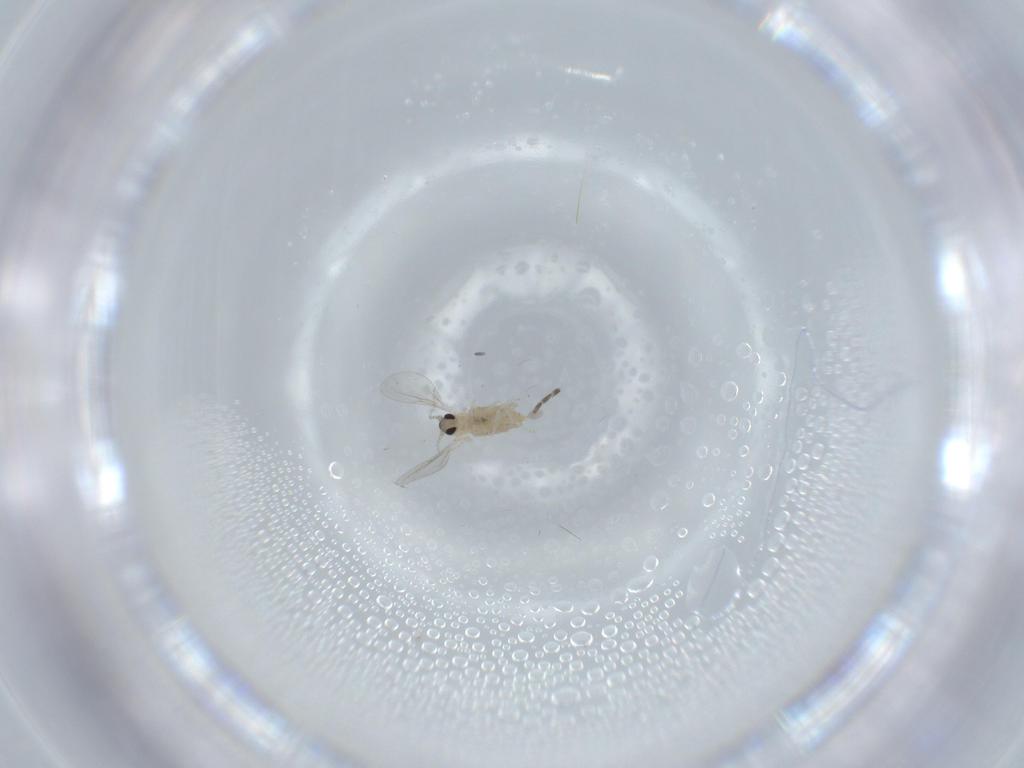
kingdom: Animalia
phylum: Arthropoda
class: Insecta
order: Diptera
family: Cecidomyiidae
